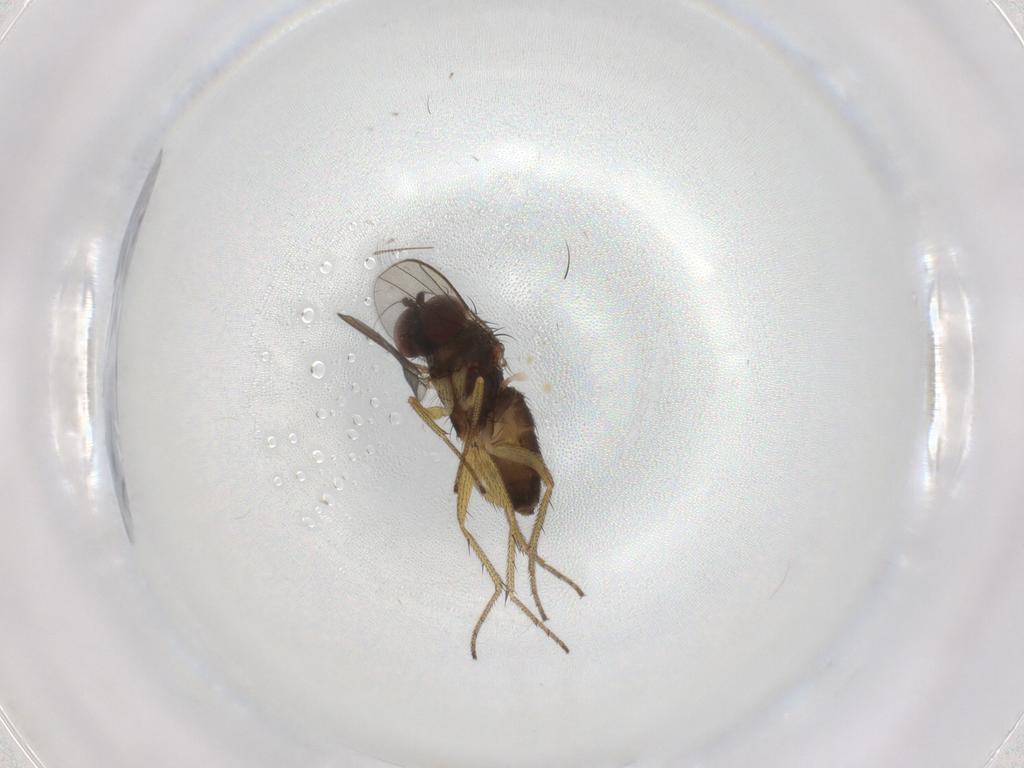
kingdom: Animalia
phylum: Arthropoda
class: Insecta
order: Diptera
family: Dolichopodidae
